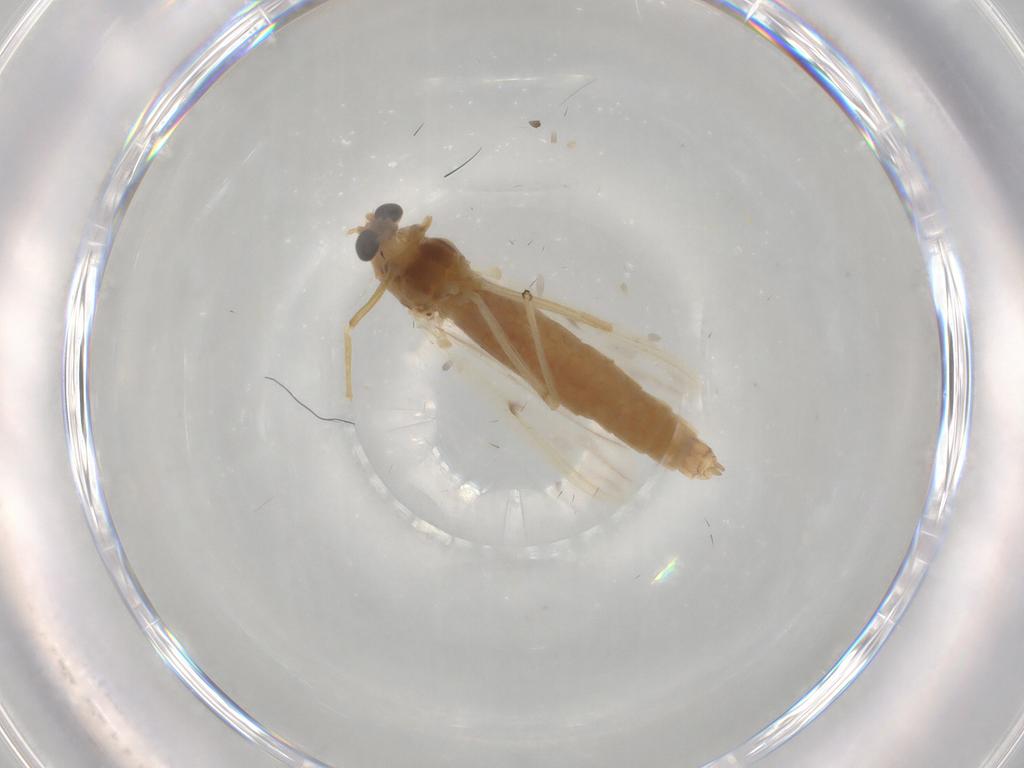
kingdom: Animalia
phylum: Arthropoda
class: Insecta
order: Diptera
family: Chironomidae
